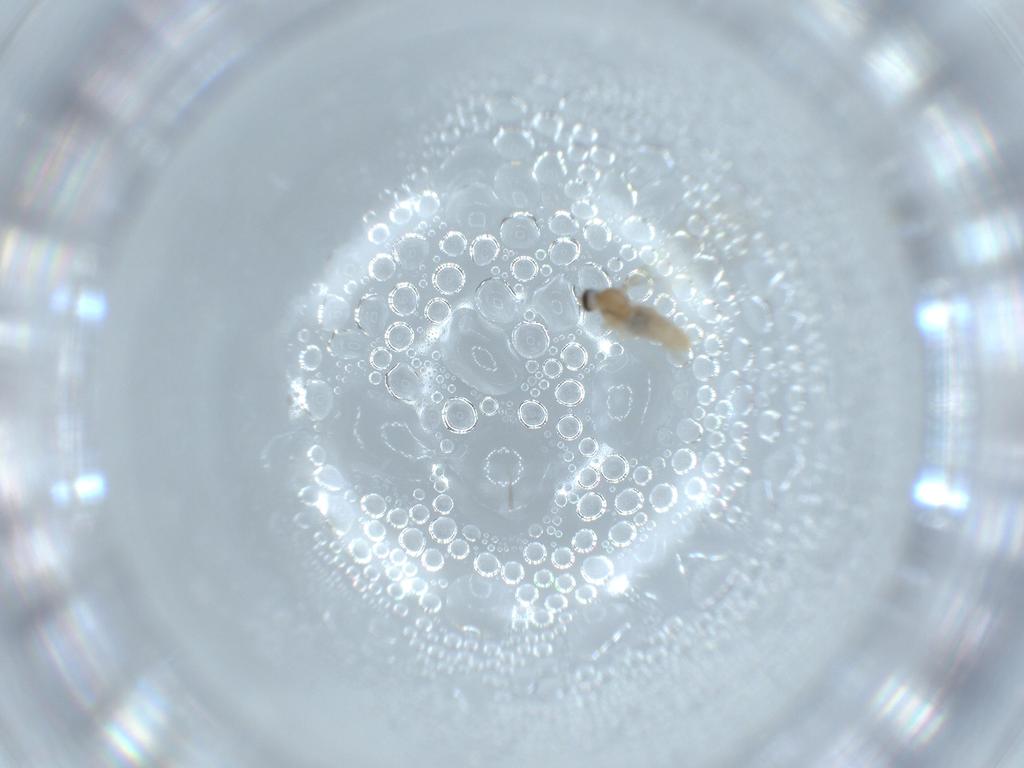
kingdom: Animalia
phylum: Arthropoda
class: Insecta
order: Diptera
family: Cecidomyiidae
